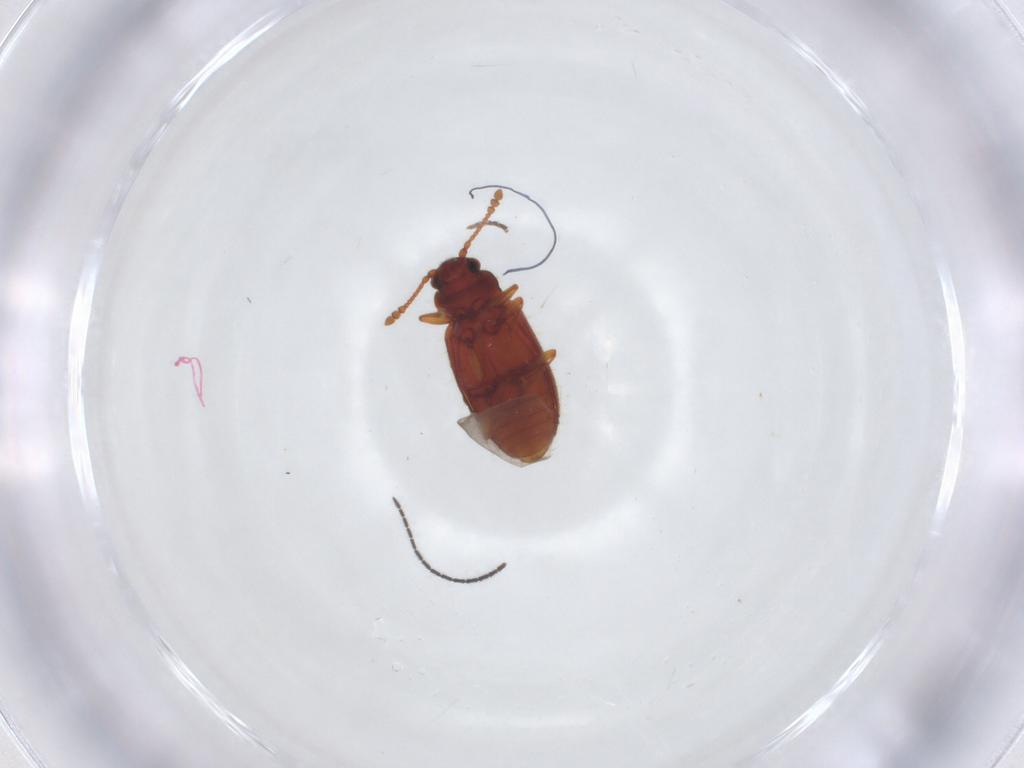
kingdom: Animalia
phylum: Arthropoda
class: Insecta
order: Coleoptera
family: Cryptophagidae
